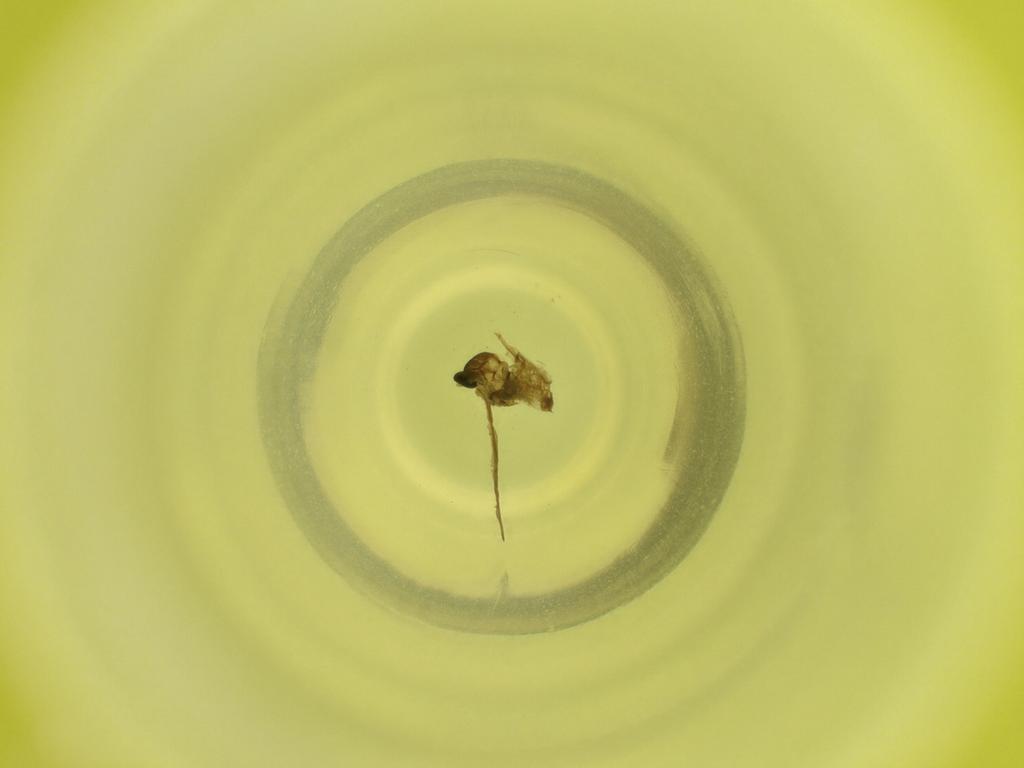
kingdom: Animalia
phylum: Arthropoda
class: Insecta
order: Diptera
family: Cecidomyiidae
